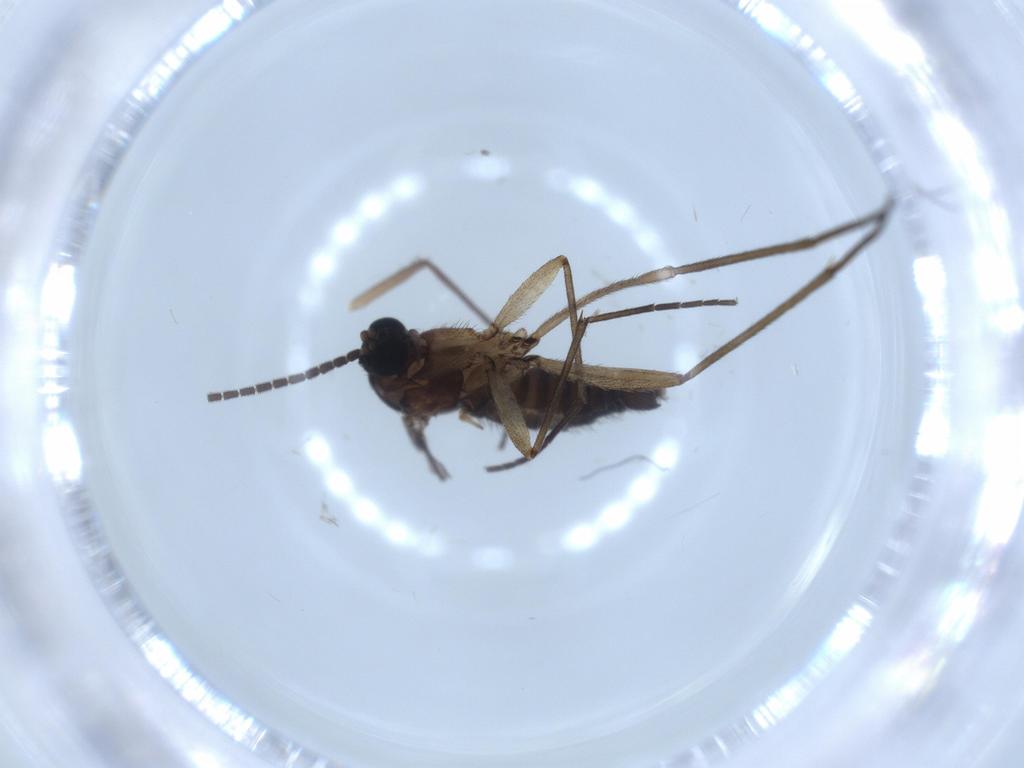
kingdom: Animalia
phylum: Arthropoda
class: Insecta
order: Diptera
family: Sciaridae
